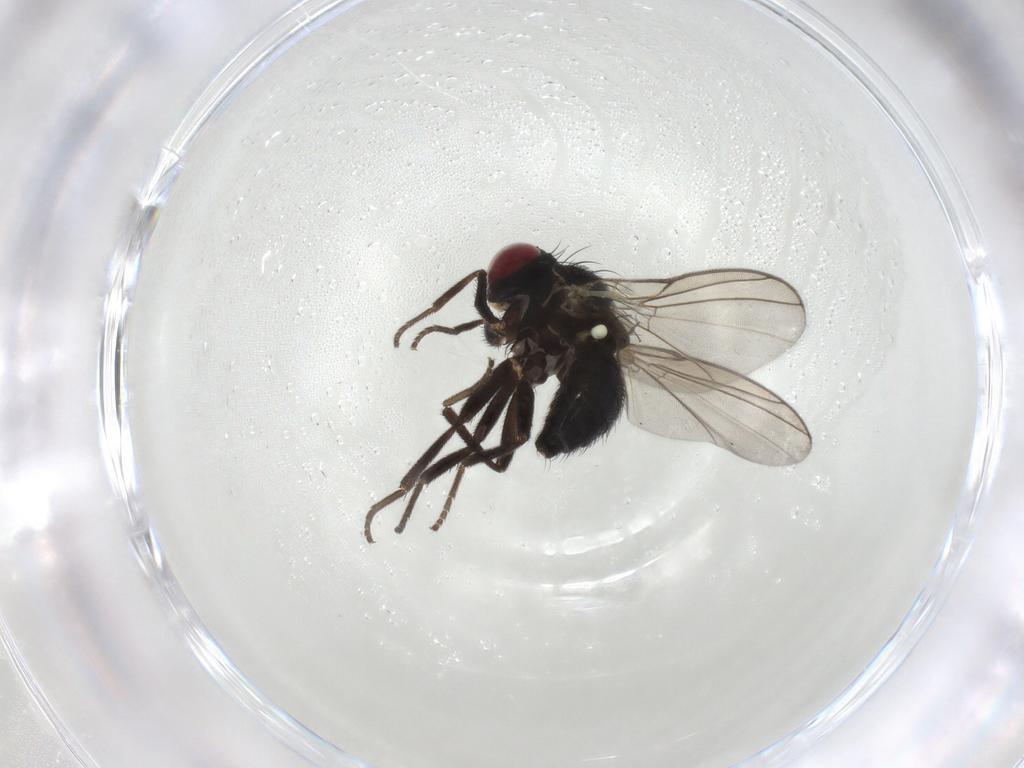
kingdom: Animalia
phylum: Arthropoda
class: Insecta
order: Diptera
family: Agromyzidae
